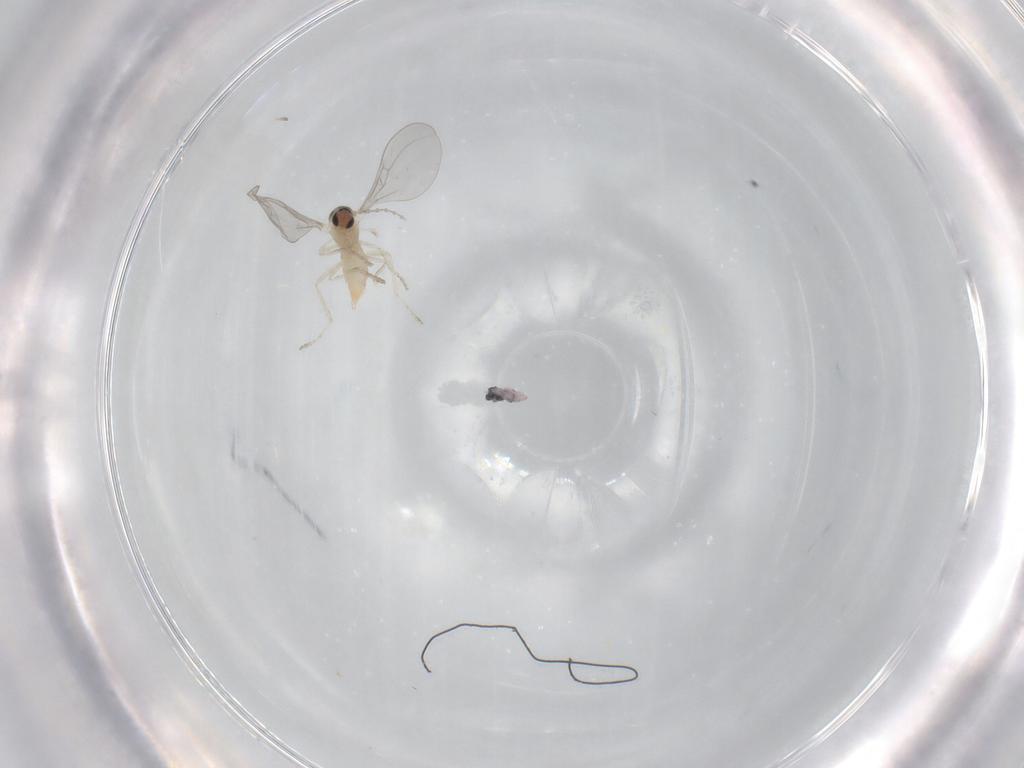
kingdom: Animalia
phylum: Arthropoda
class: Insecta
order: Diptera
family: Cecidomyiidae
